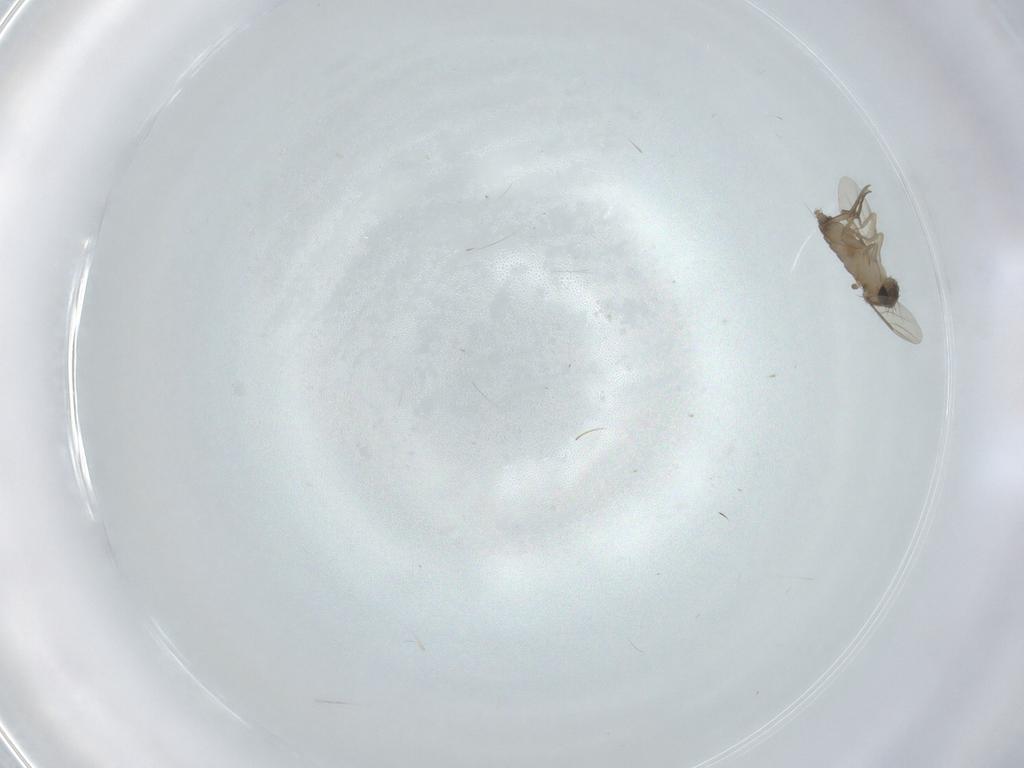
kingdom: Animalia
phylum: Arthropoda
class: Insecta
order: Diptera
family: Phoridae
